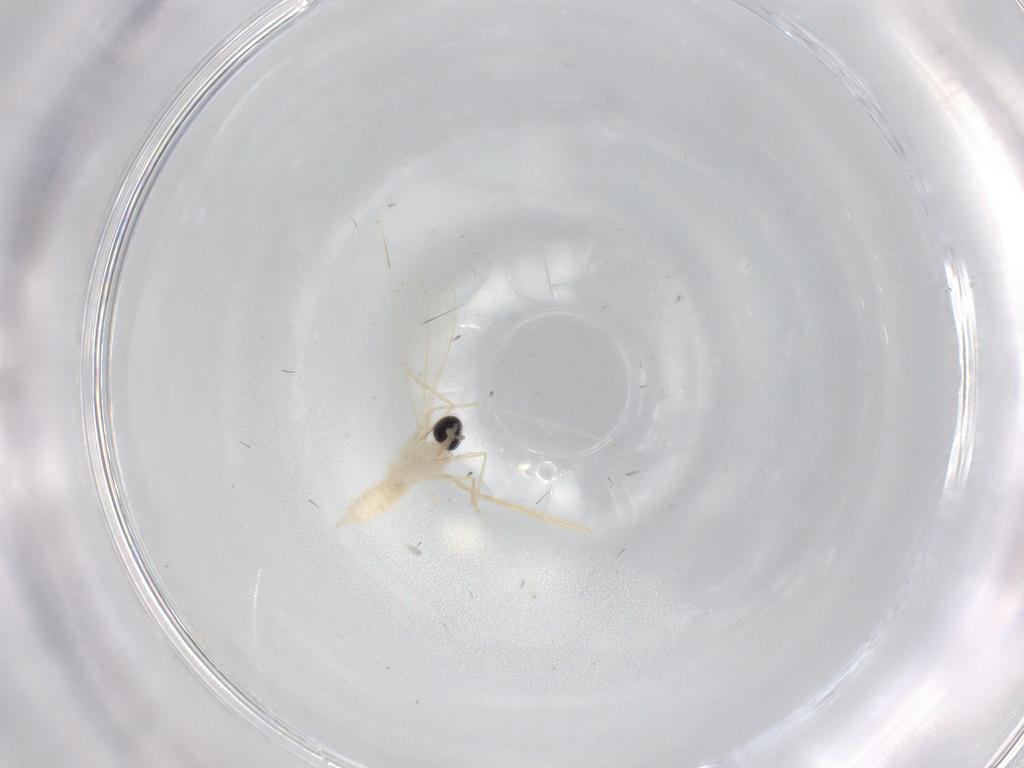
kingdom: Animalia
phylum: Arthropoda
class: Insecta
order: Diptera
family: Cecidomyiidae
